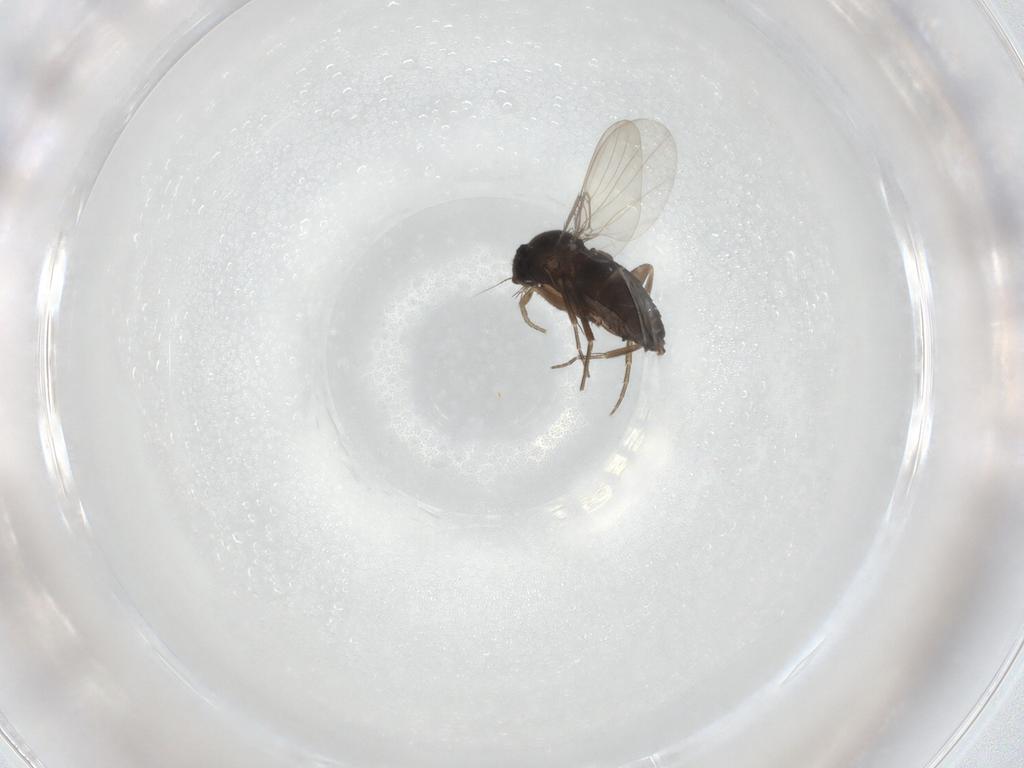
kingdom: Animalia
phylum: Arthropoda
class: Insecta
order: Diptera
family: Phoridae
